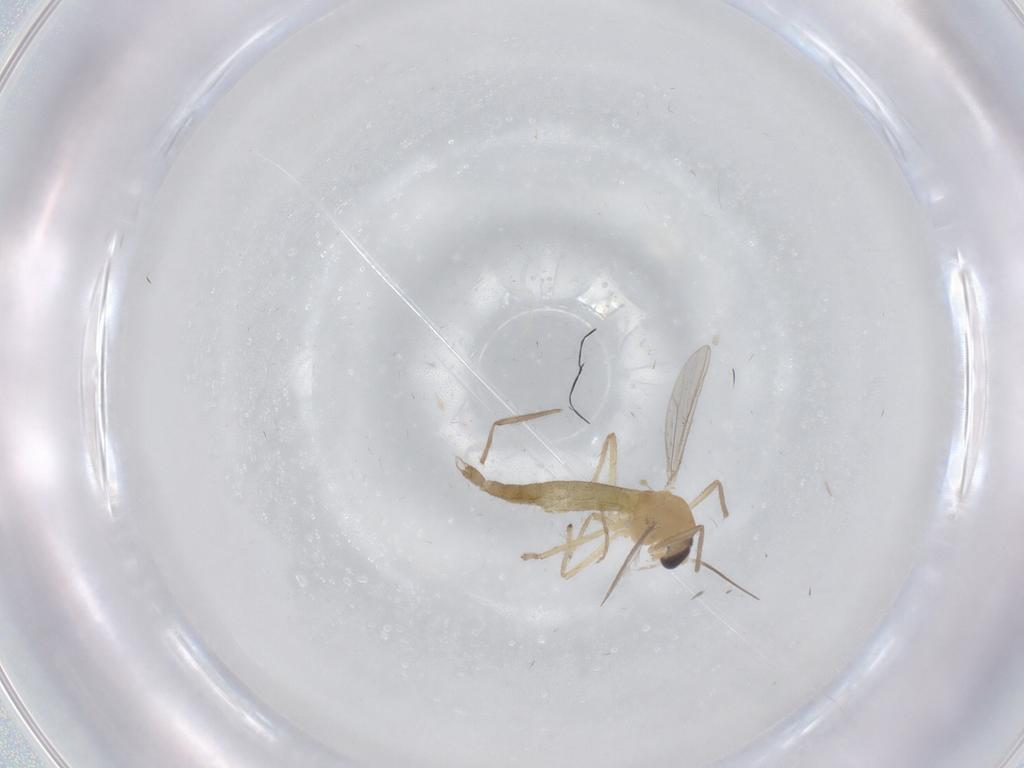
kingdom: Animalia
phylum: Arthropoda
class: Insecta
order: Diptera
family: Chironomidae
